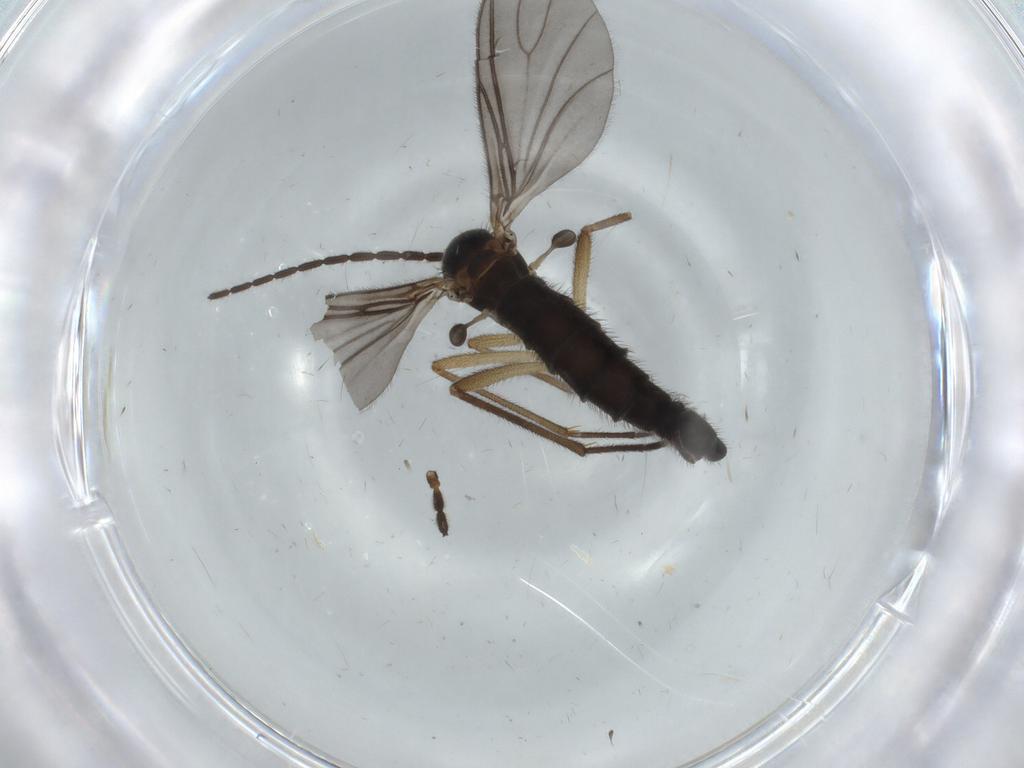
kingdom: Animalia
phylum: Arthropoda
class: Insecta
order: Diptera
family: Sciaridae
